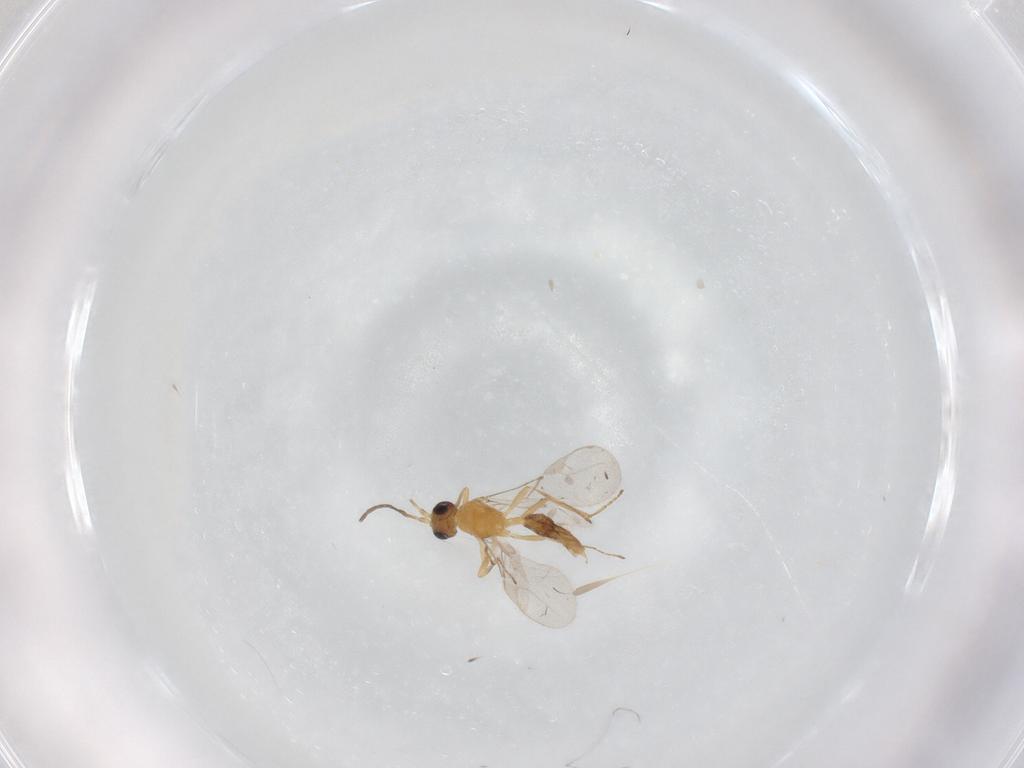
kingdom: Animalia
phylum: Arthropoda
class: Insecta
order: Hymenoptera
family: Braconidae
